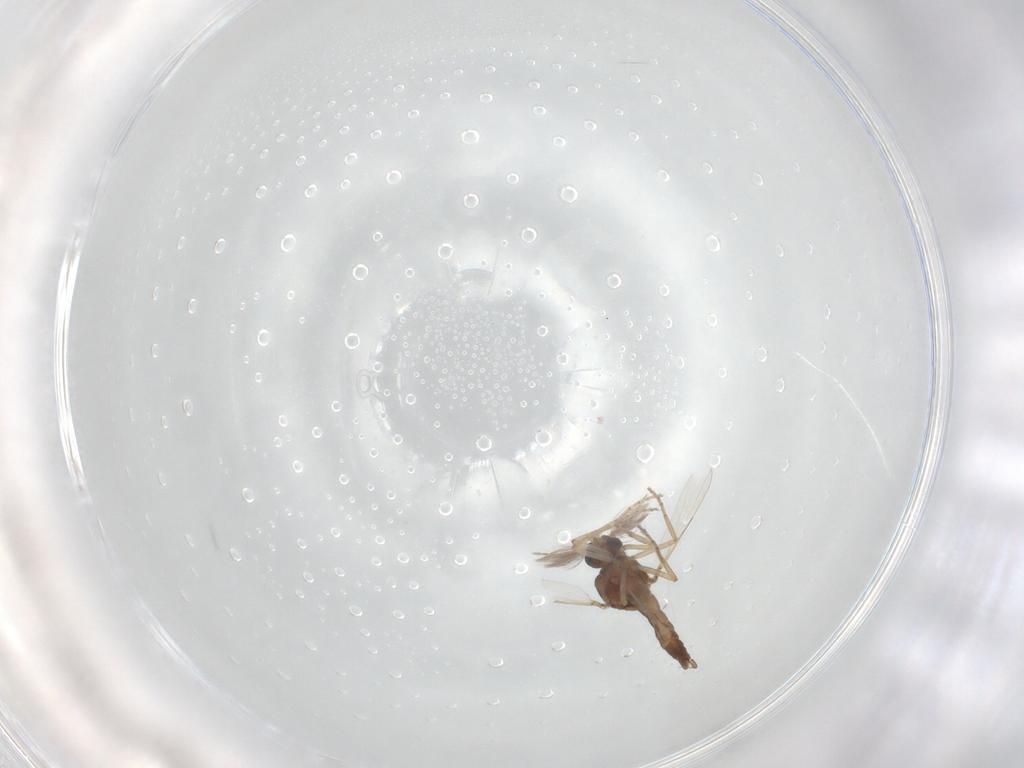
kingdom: Animalia
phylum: Arthropoda
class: Insecta
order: Diptera
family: Ceratopogonidae
